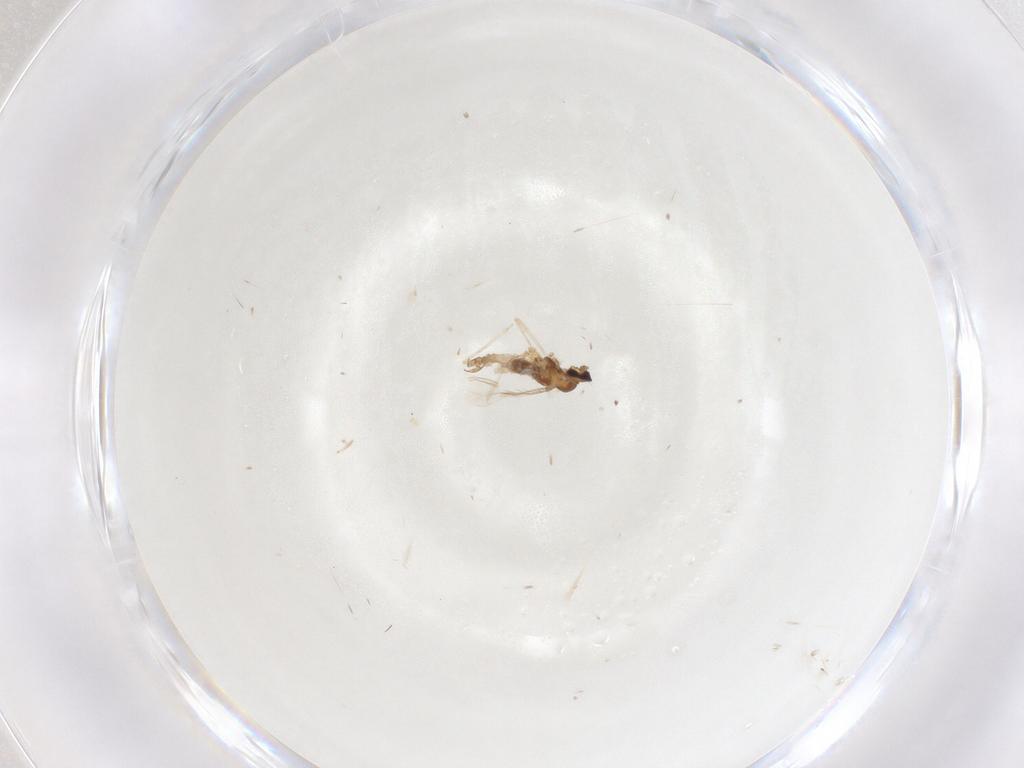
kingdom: Animalia
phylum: Arthropoda
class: Insecta
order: Diptera
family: Cecidomyiidae
